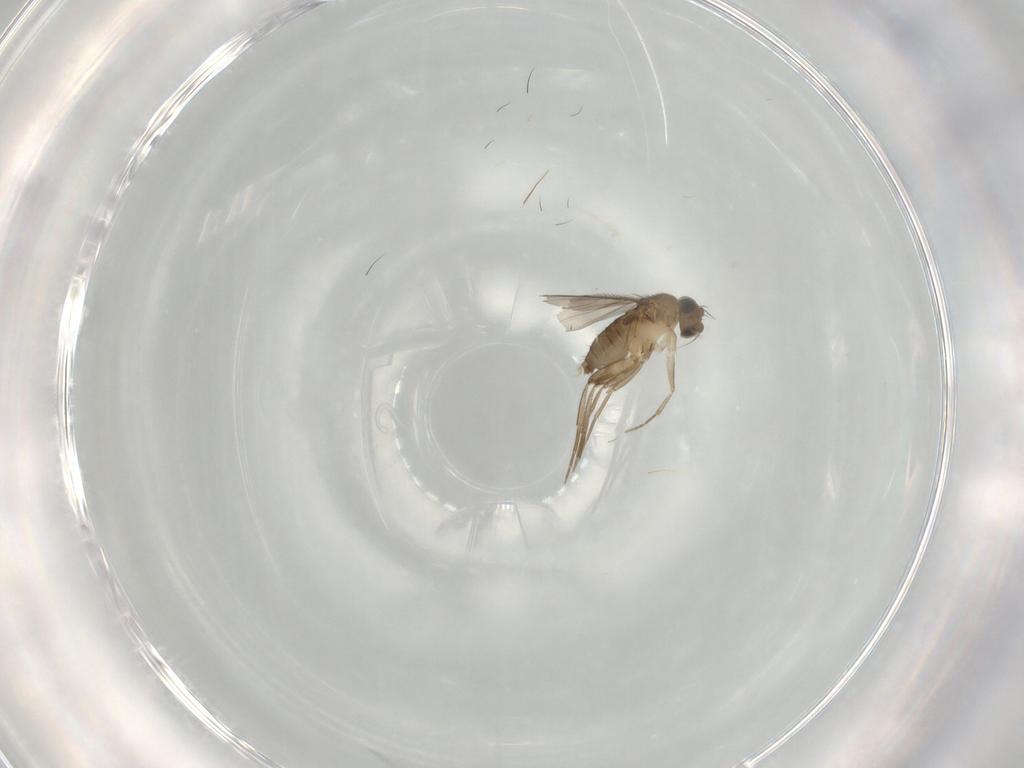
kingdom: Animalia
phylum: Arthropoda
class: Insecta
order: Diptera
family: Phoridae
